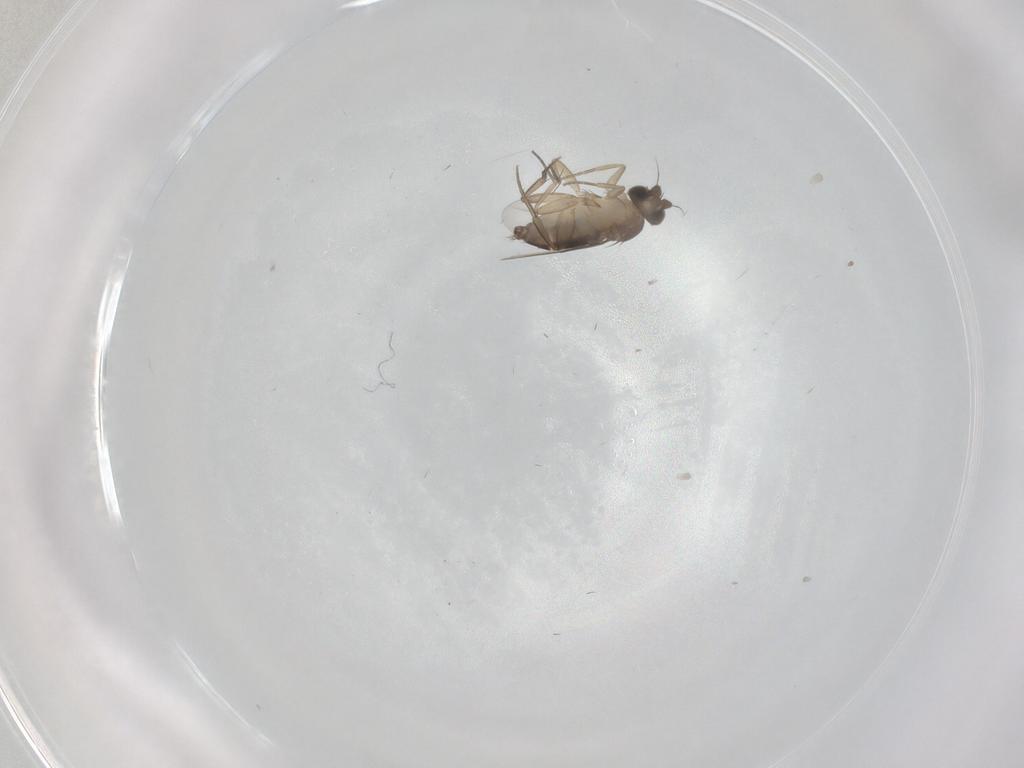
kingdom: Animalia
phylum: Arthropoda
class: Insecta
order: Diptera
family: Phoridae
